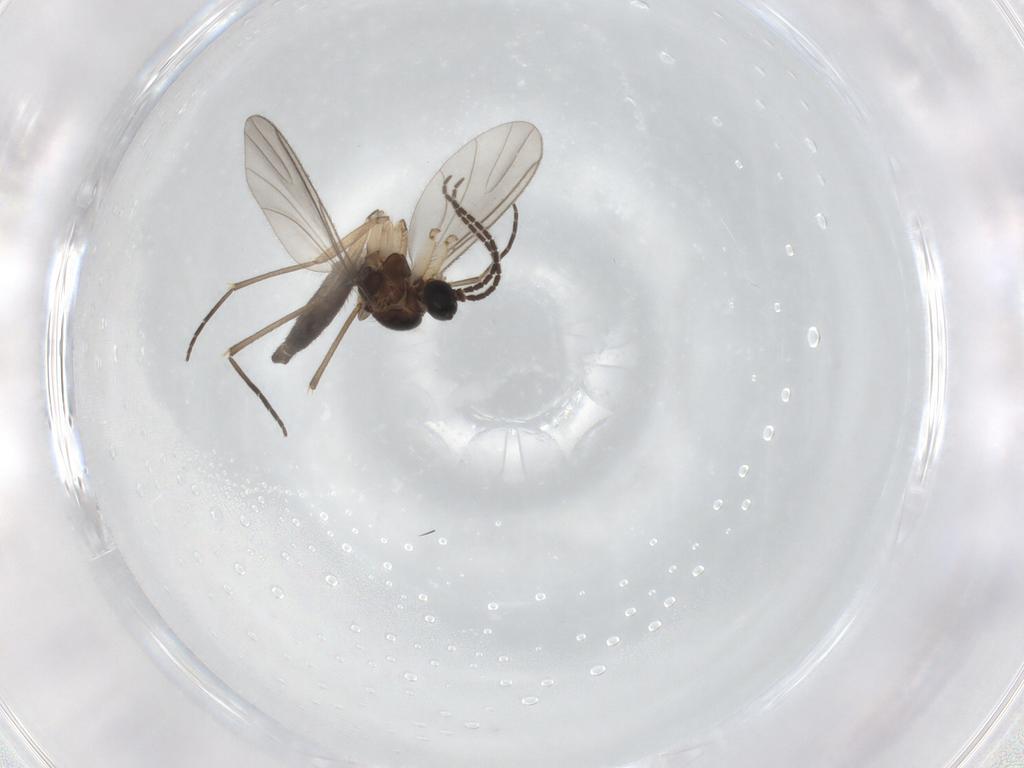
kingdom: Animalia
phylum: Arthropoda
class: Insecta
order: Diptera
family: Sciaridae
